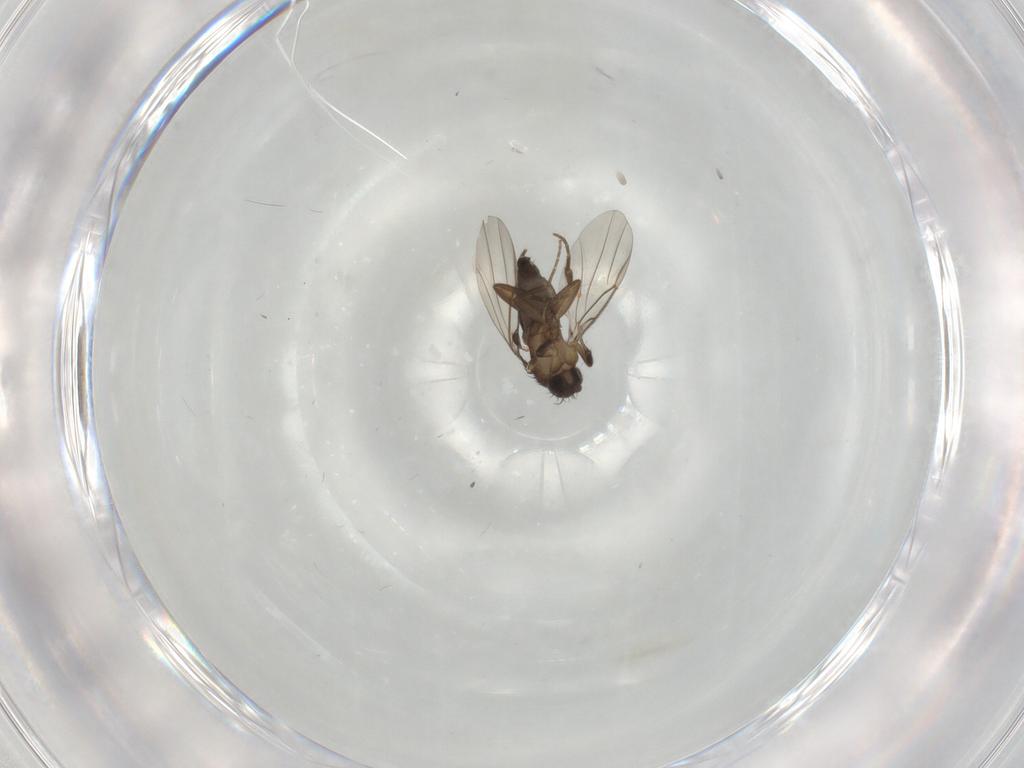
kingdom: Animalia
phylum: Arthropoda
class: Insecta
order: Diptera
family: Phoridae
